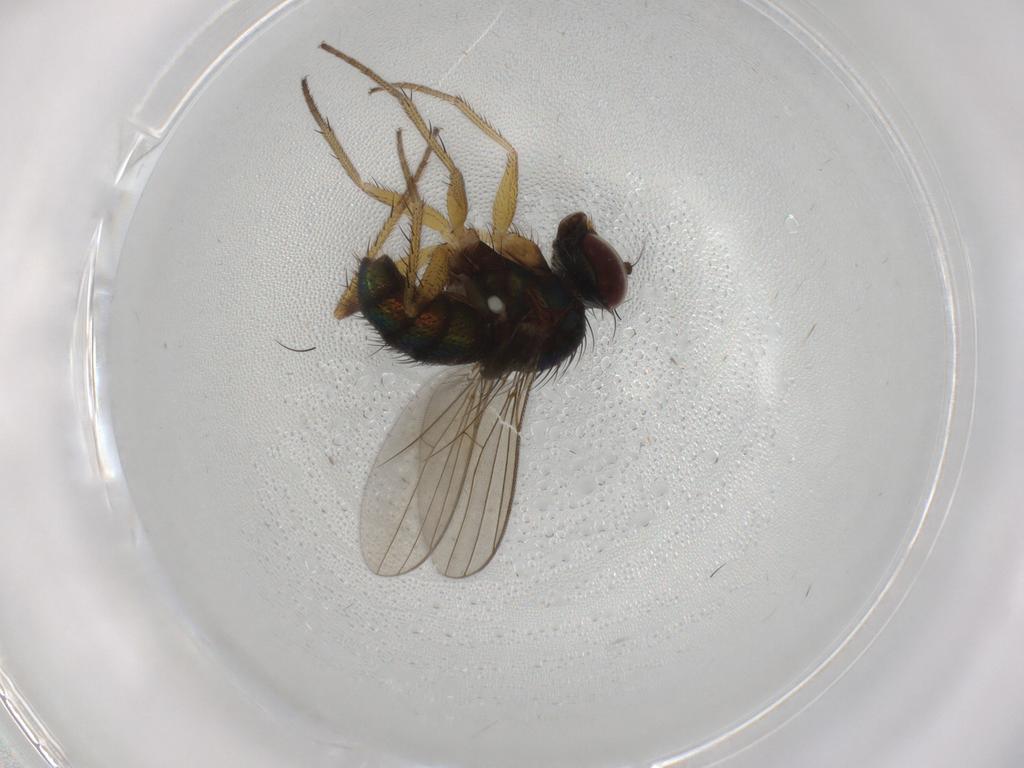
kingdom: Animalia
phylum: Arthropoda
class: Insecta
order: Diptera
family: Dolichopodidae
